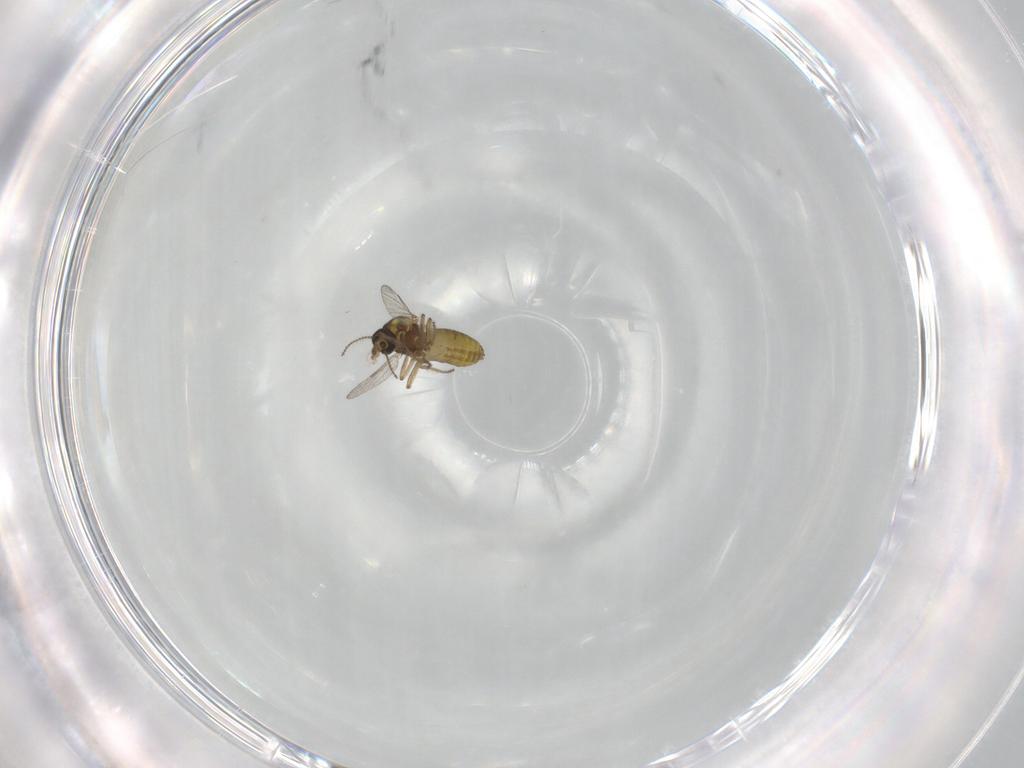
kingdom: Animalia
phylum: Arthropoda
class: Insecta
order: Diptera
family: Ceratopogonidae
